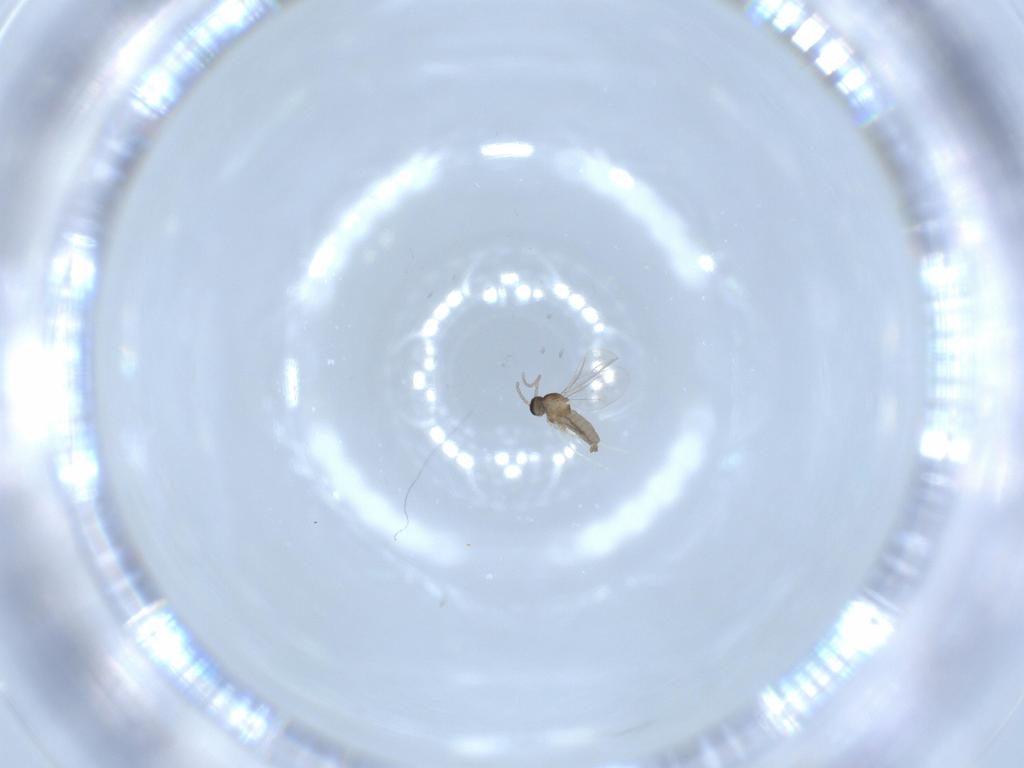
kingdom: Animalia
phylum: Arthropoda
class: Insecta
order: Diptera
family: Cecidomyiidae
